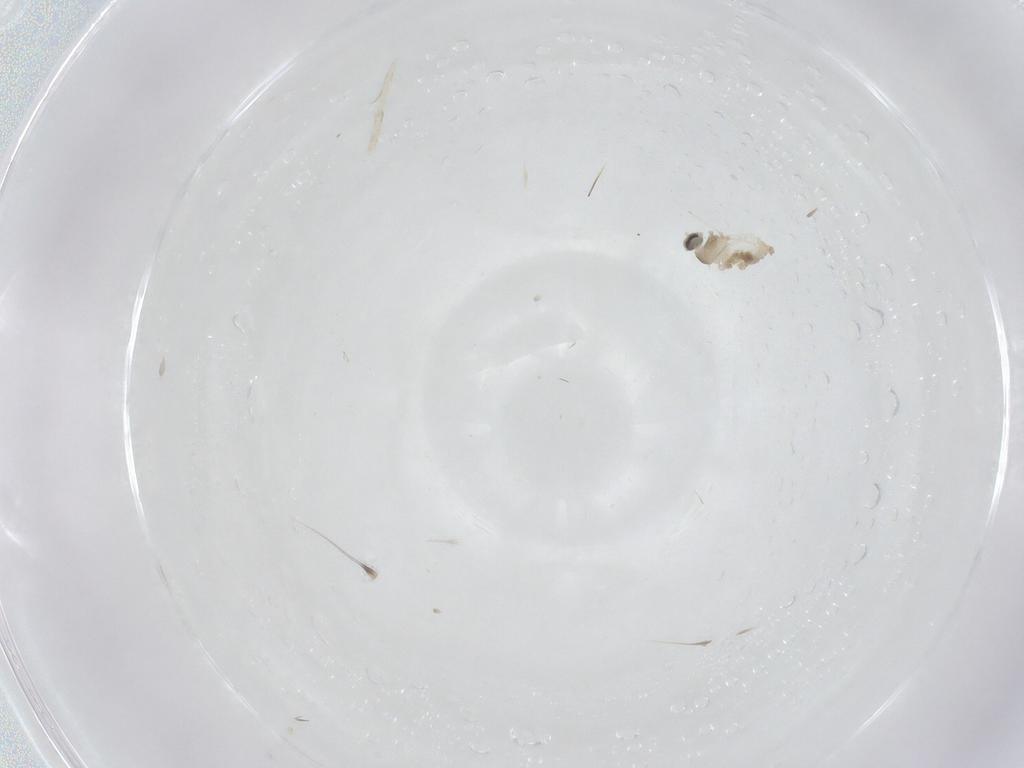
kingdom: Animalia
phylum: Arthropoda
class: Insecta
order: Diptera
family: Cecidomyiidae
